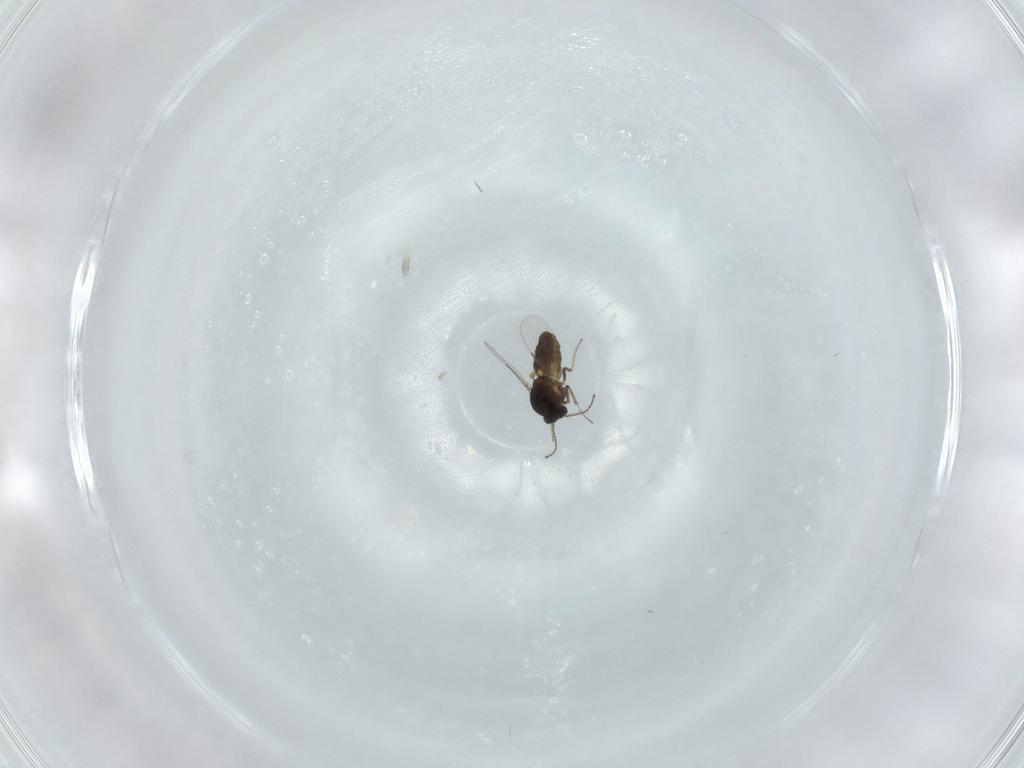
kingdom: Animalia
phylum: Arthropoda
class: Insecta
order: Diptera
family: Ceratopogonidae
